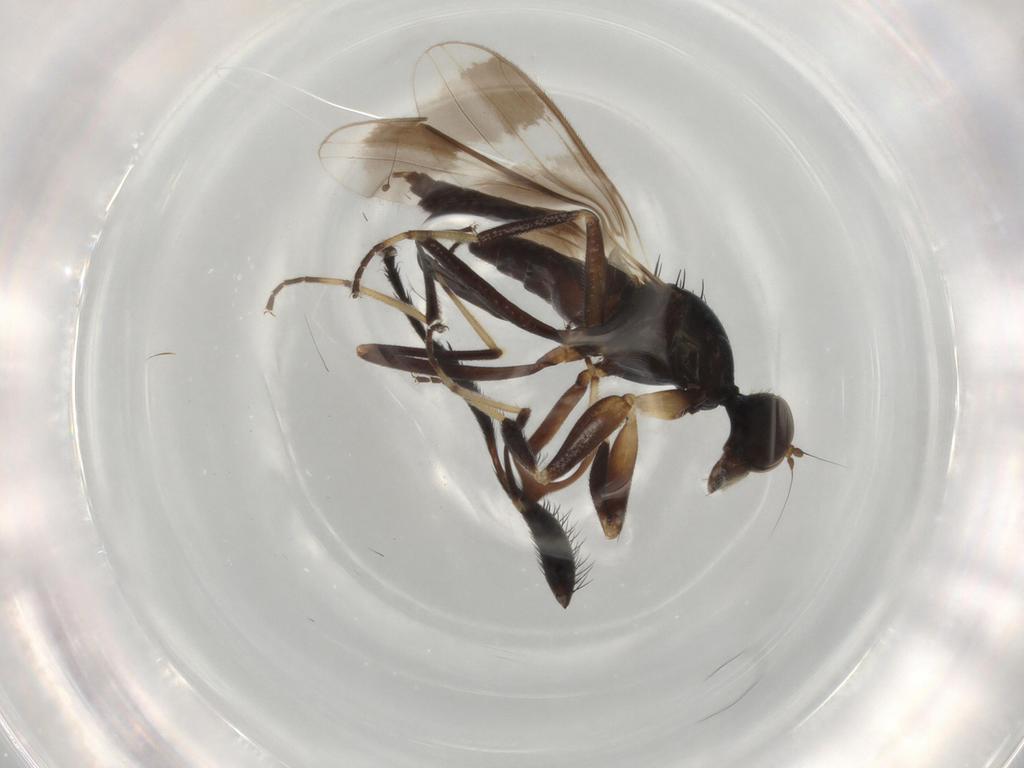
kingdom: Animalia
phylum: Arthropoda
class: Insecta
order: Diptera
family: Hybotidae
